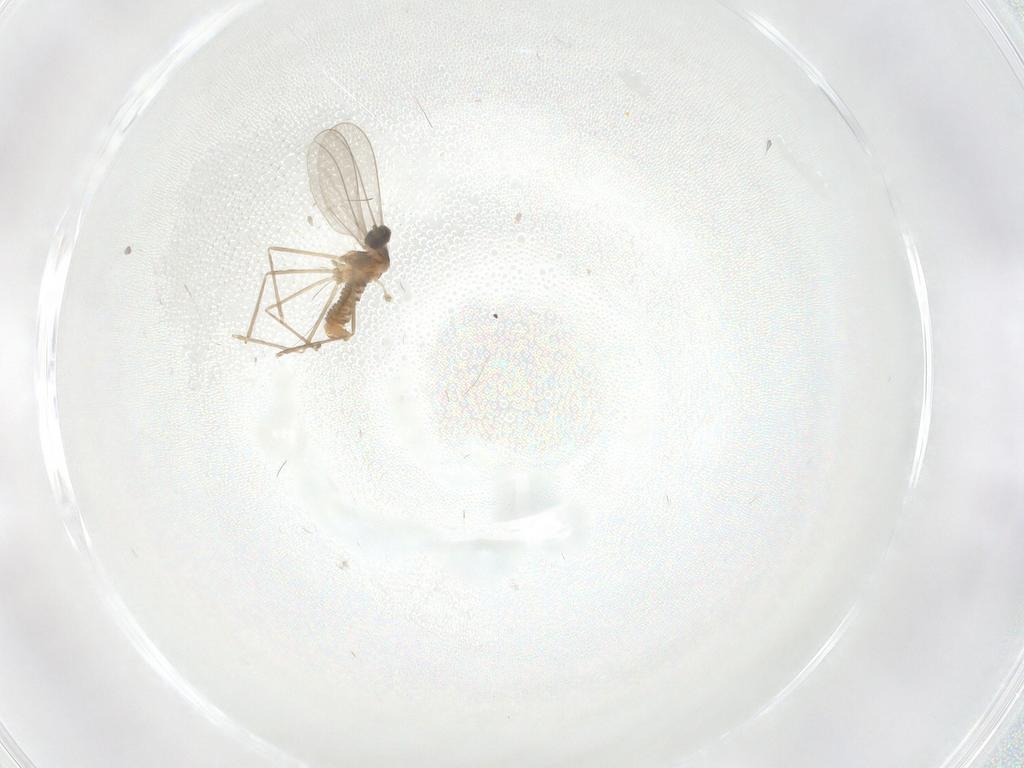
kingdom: Animalia
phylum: Arthropoda
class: Insecta
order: Diptera
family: Cecidomyiidae
